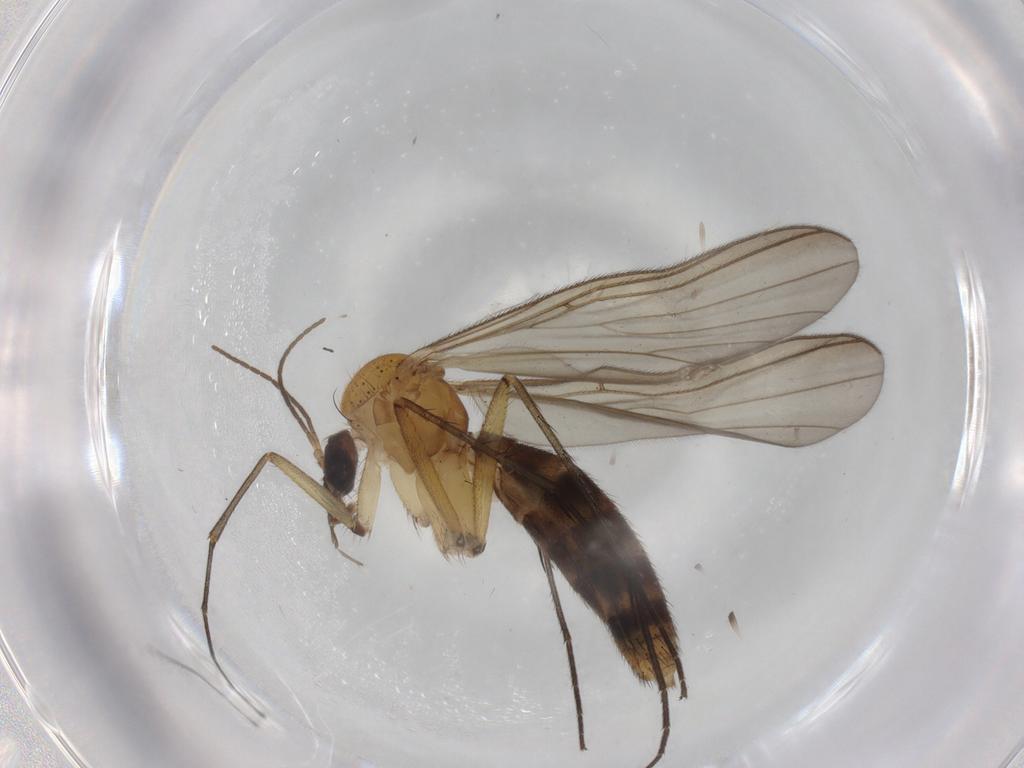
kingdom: Animalia
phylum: Arthropoda
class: Insecta
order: Diptera
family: Mycetophilidae
